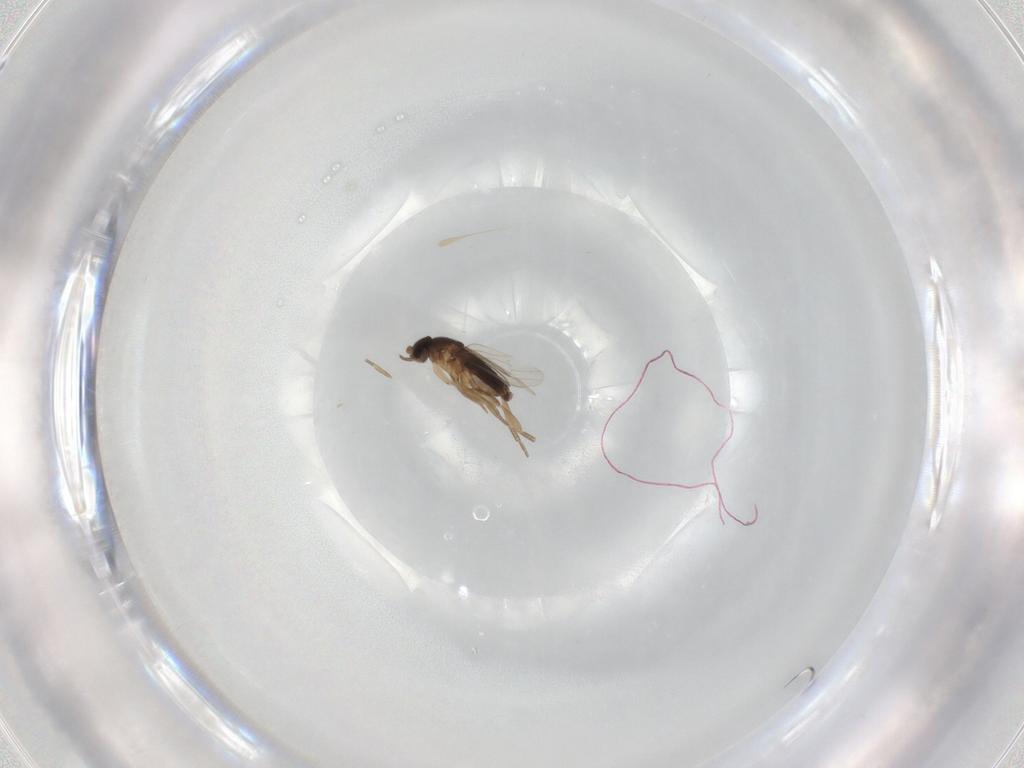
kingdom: Animalia
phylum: Arthropoda
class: Insecta
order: Diptera
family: Phoridae
